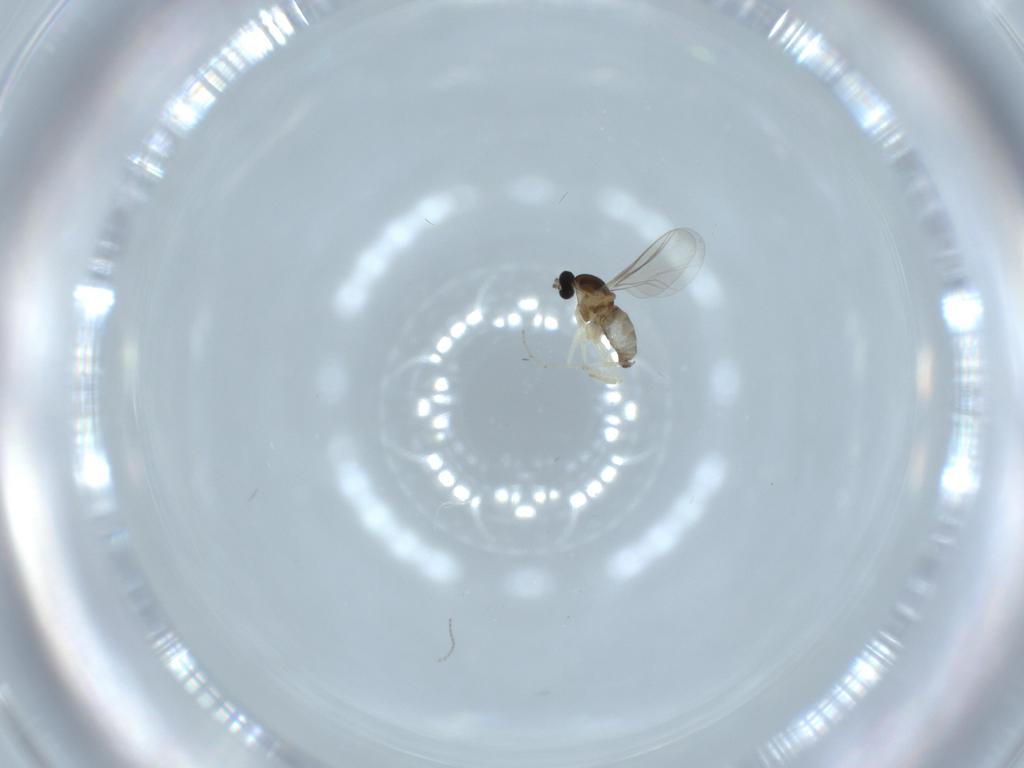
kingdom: Animalia
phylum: Arthropoda
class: Insecta
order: Diptera
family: Cecidomyiidae
